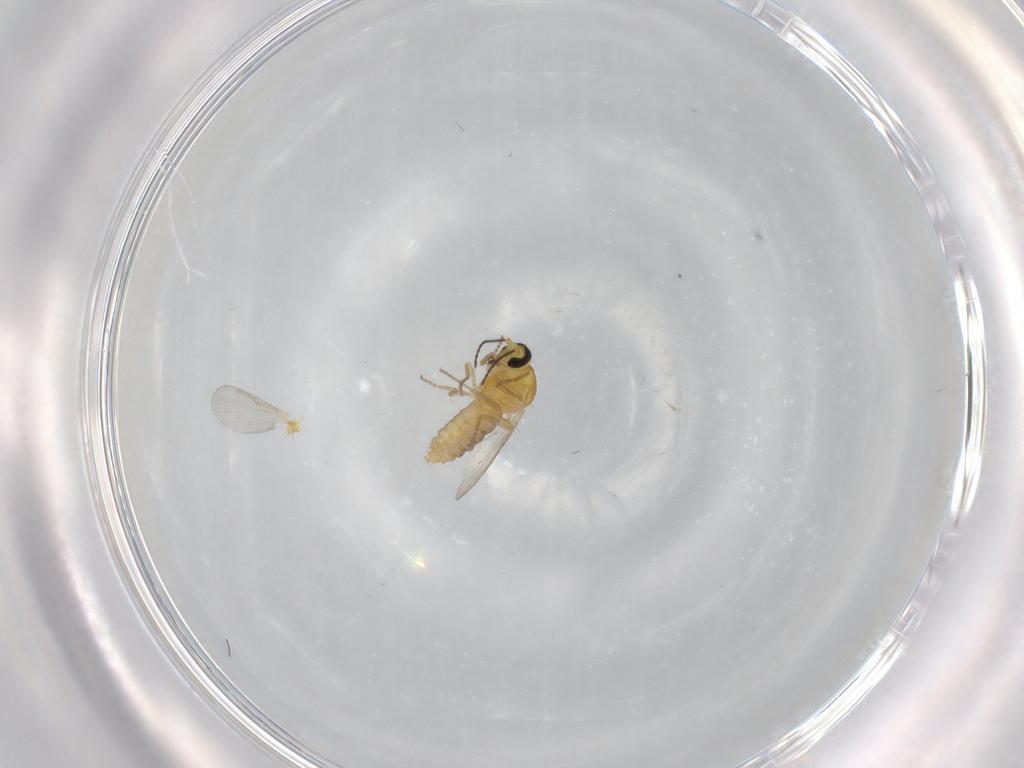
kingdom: Animalia
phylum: Arthropoda
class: Insecta
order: Diptera
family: Ceratopogonidae
